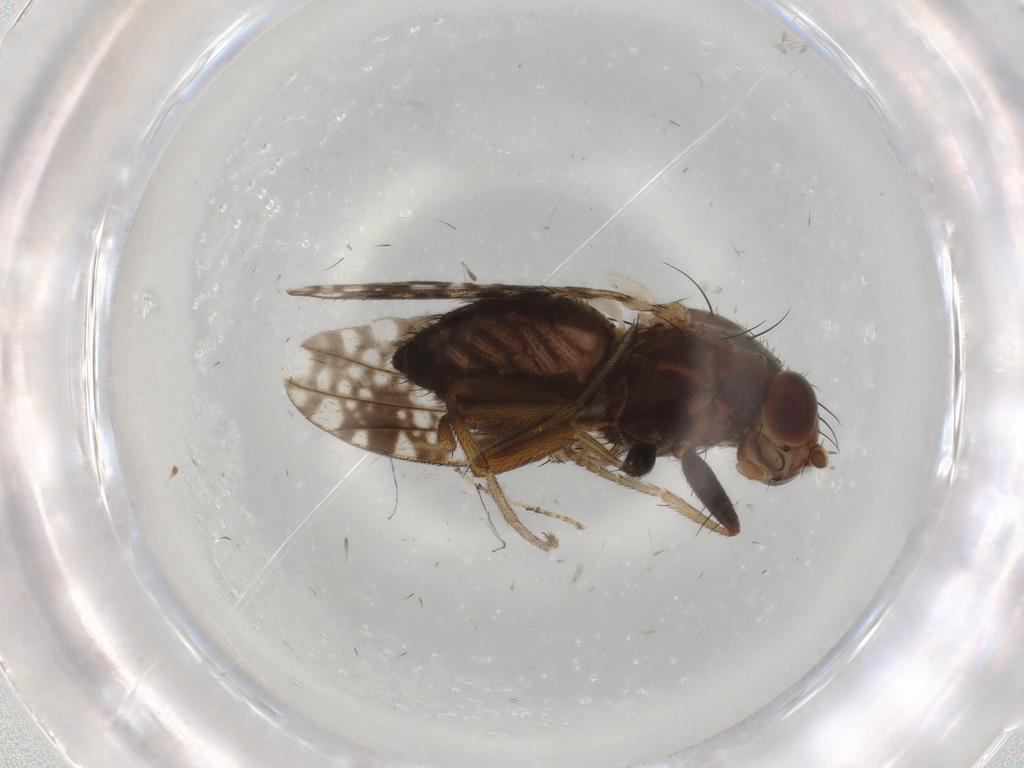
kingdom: Animalia
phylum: Arthropoda
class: Insecta
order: Diptera
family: Tephritidae
